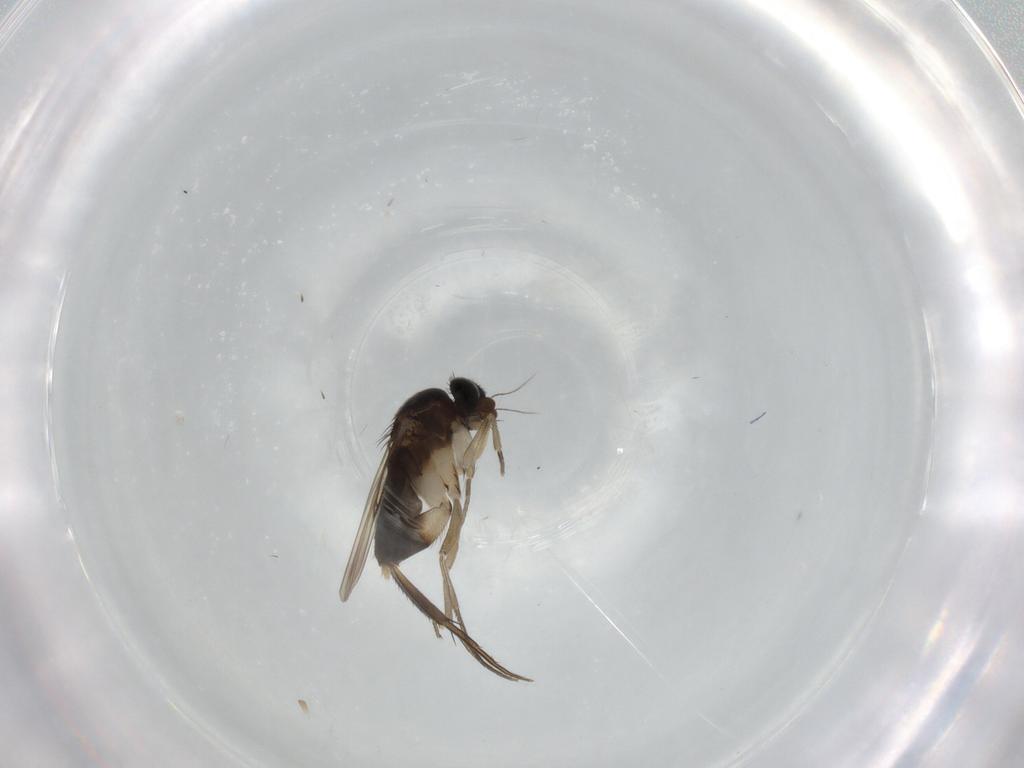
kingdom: Animalia
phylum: Arthropoda
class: Insecta
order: Diptera
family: Phoridae
